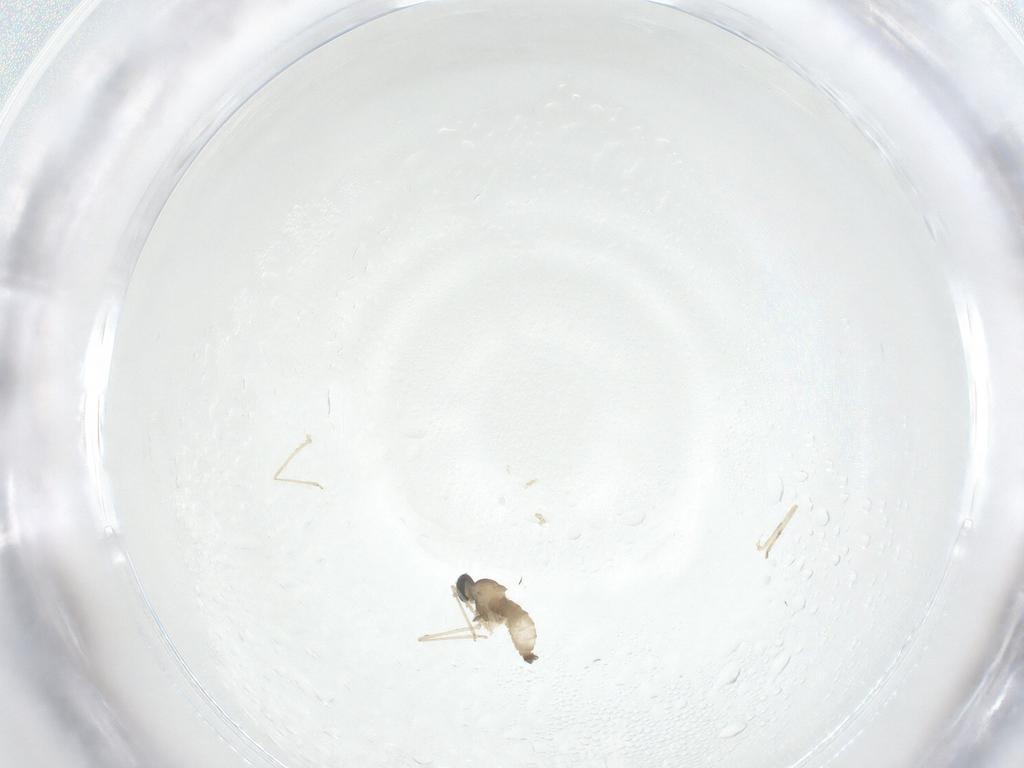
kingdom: Animalia
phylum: Arthropoda
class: Insecta
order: Diptera
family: Cecidomyiidae
